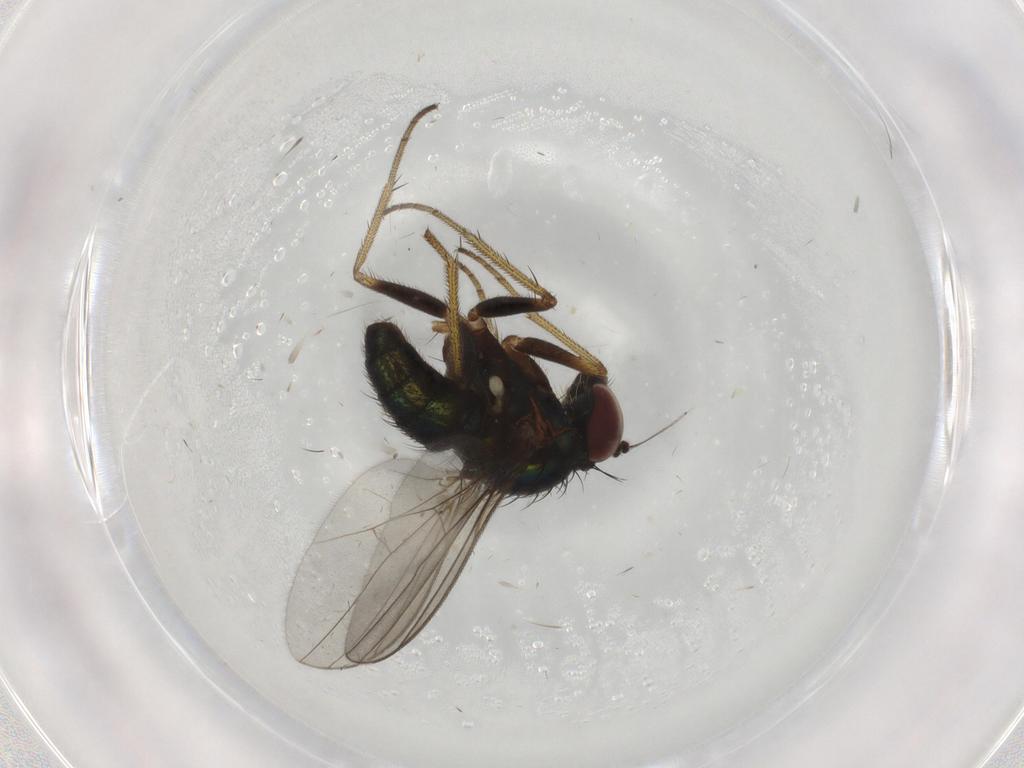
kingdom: Animalia
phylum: Arthropoda
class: Insecta
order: Diptera
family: Dolichopodidae
